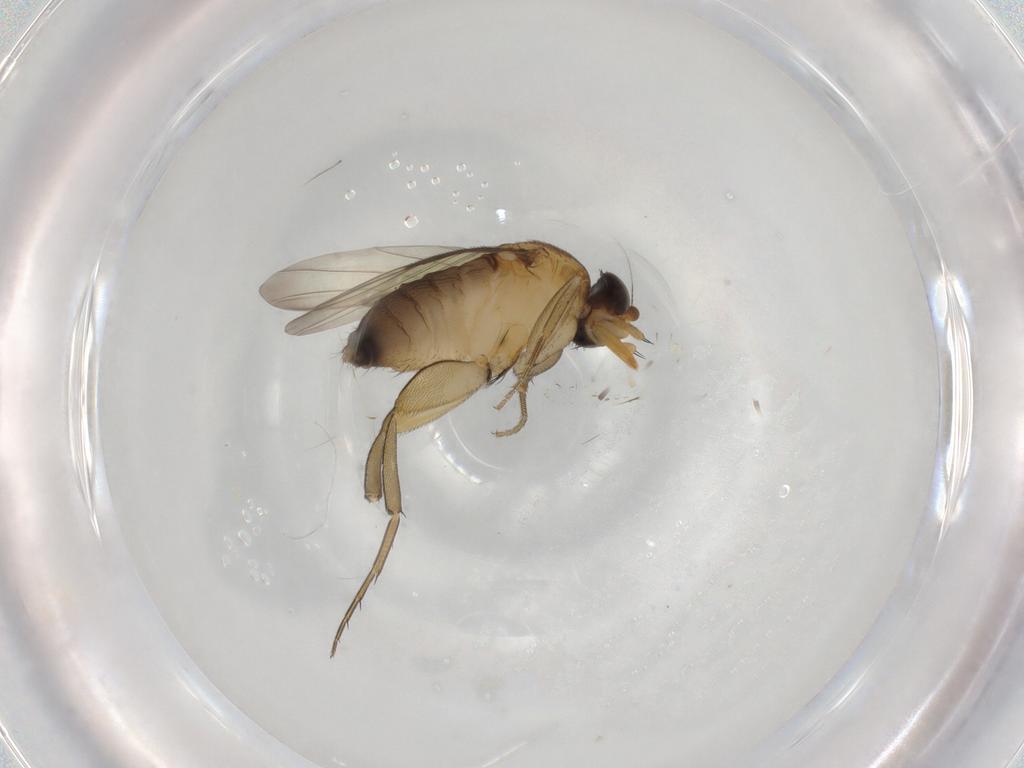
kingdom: Animalia
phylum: Arthropoda
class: Insecta
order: Diptera
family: Phoridae
